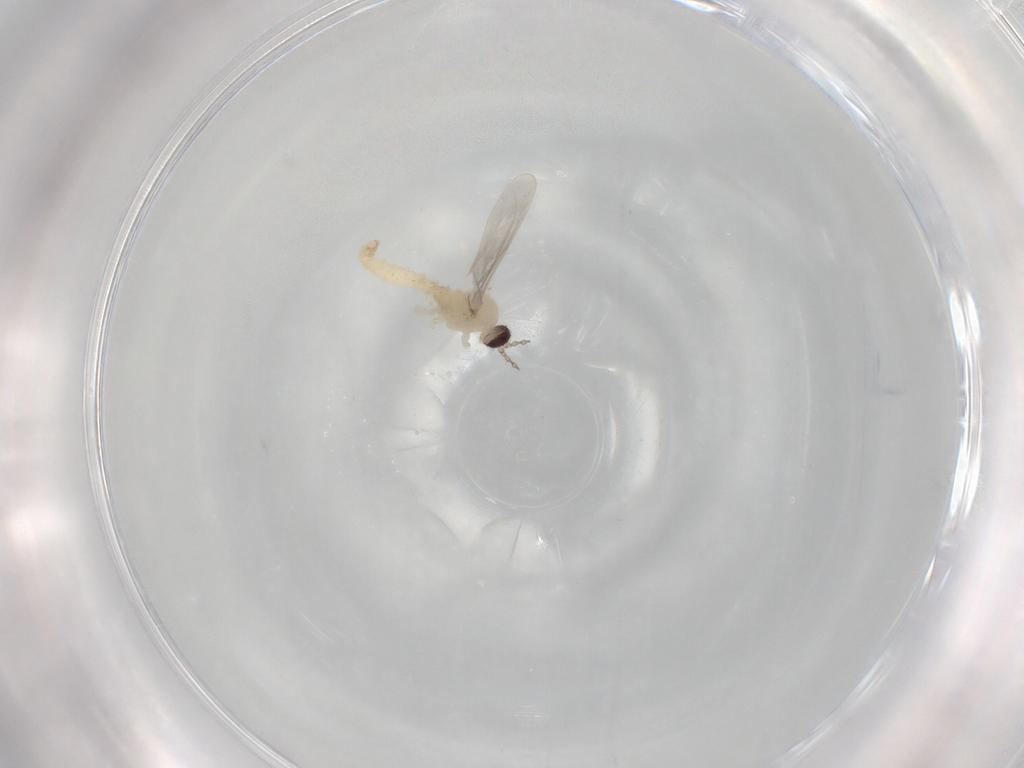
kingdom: Animalia
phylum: Arthropoda
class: Insecta
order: Diptera
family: Cecidomyiidae
